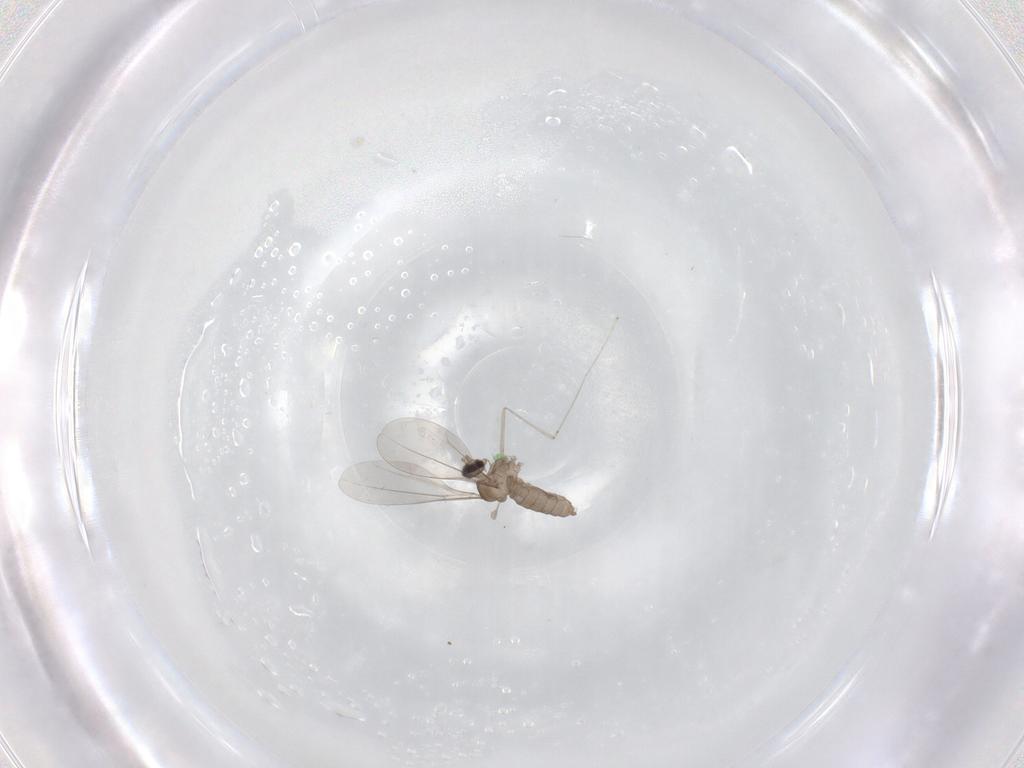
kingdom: Animalia
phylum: Arthropoda
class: Insecta
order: Diptera
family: Cecidomyiidae
